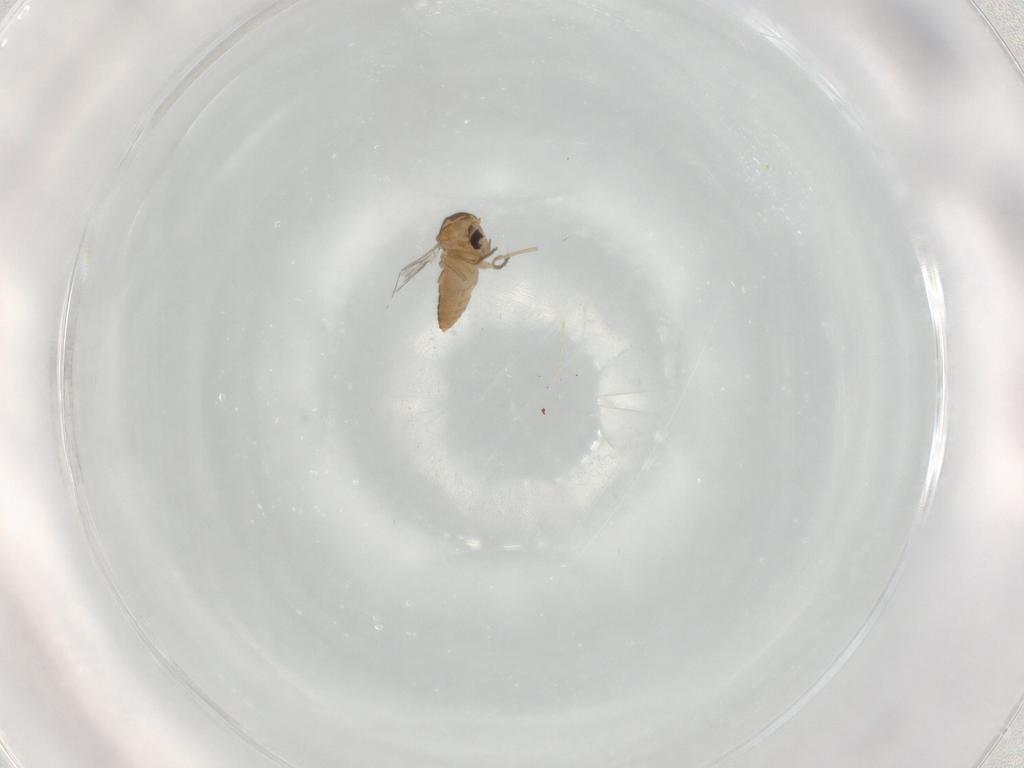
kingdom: Animalia
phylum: Arthropoda
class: Insecta
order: Diptera
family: Ceratopogonidae
